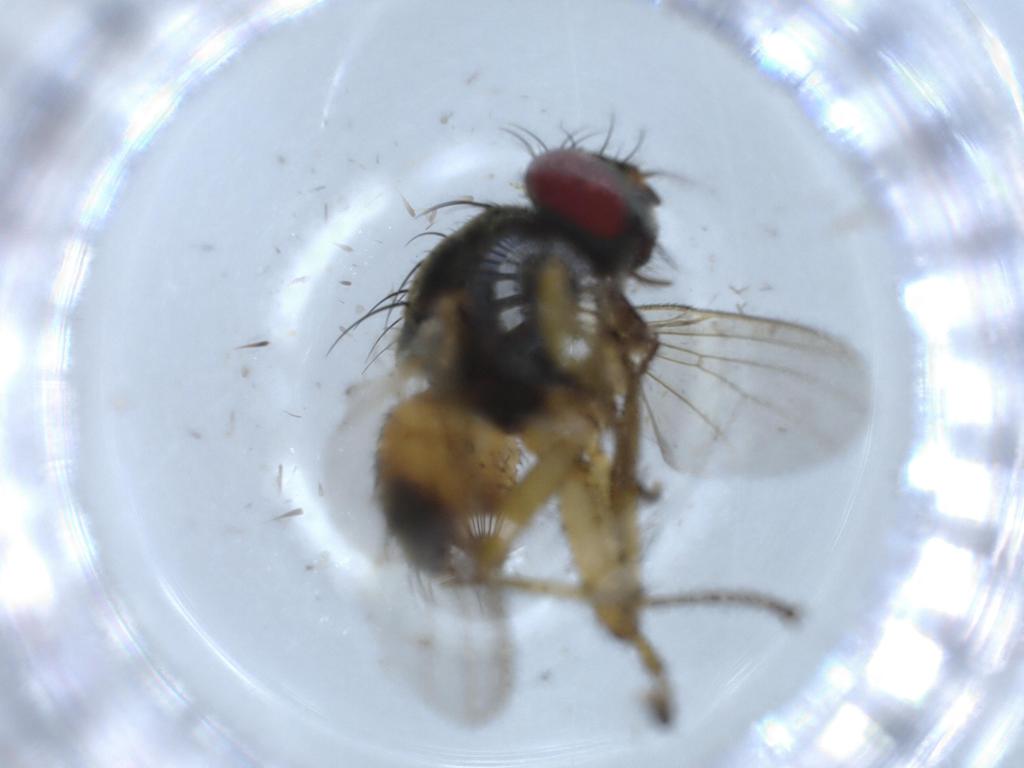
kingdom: Animalia
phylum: Arthropoda
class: Insecta
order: Diptera
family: Muscidae
